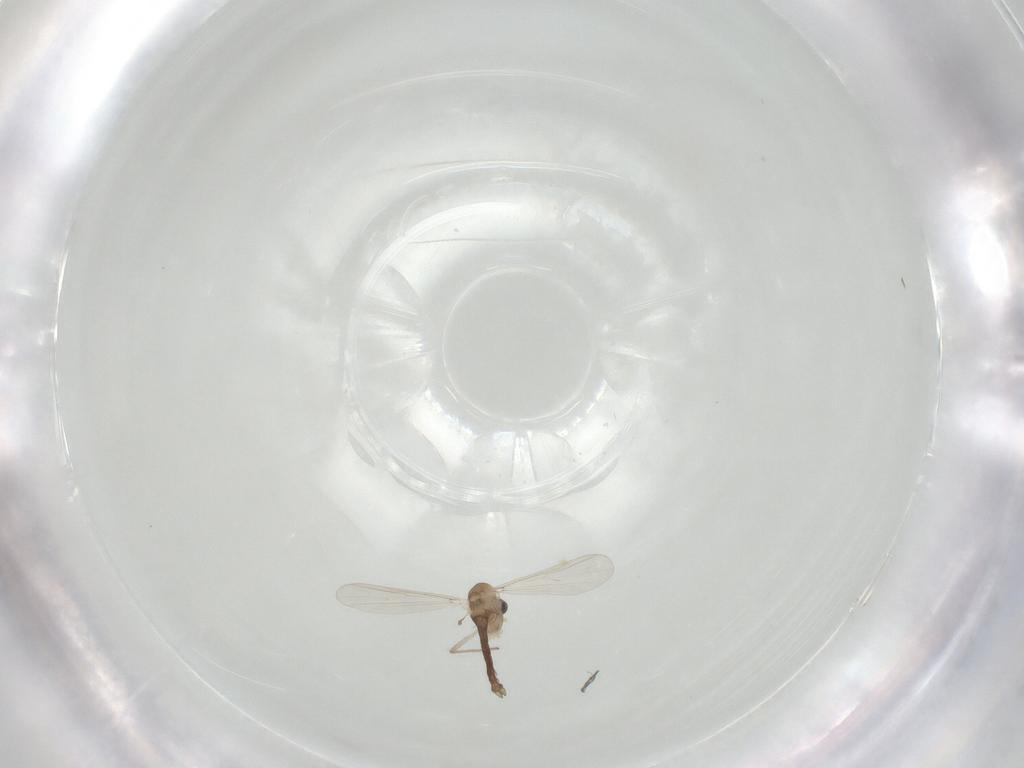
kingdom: Animalia
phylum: Arthropoda
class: Insecta
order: Diptera
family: Chironomidae
